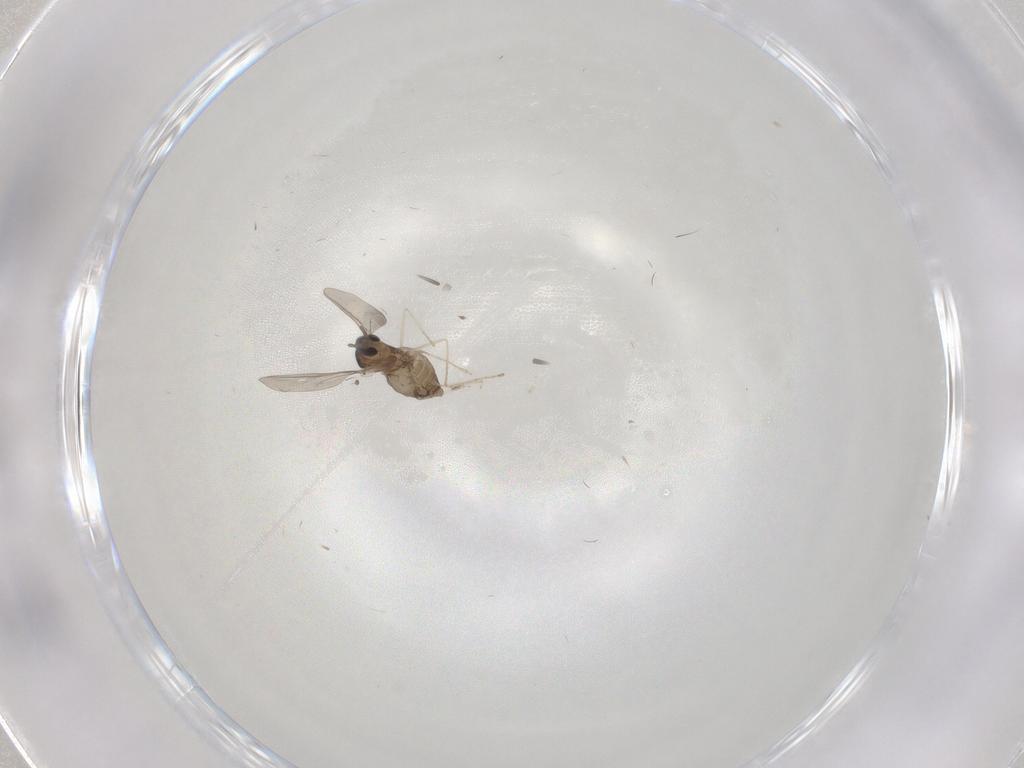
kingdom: Animalia
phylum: Arthropoda
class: Insecta
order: Diptera
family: Cecidomyiidae
